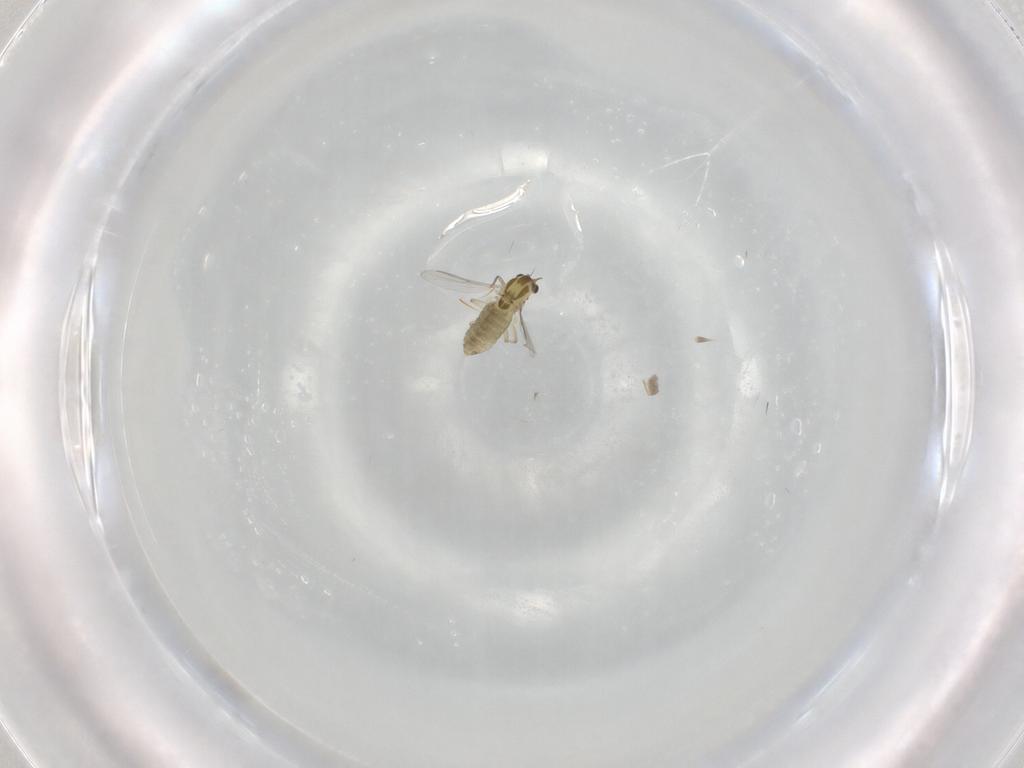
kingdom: Animalia
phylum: Arthropoda
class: Insecta
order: Diptera
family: Chironomidae
